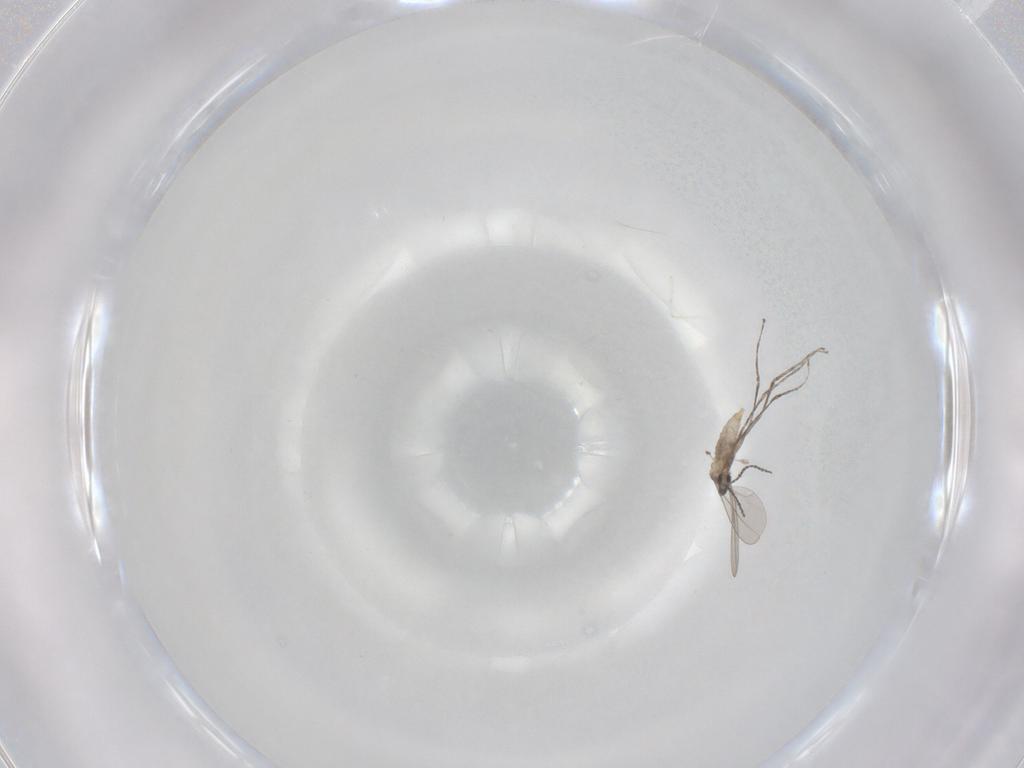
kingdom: Animalia
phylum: Arthropoda
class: Insecta
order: Diptera
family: Cecidomyiidae
